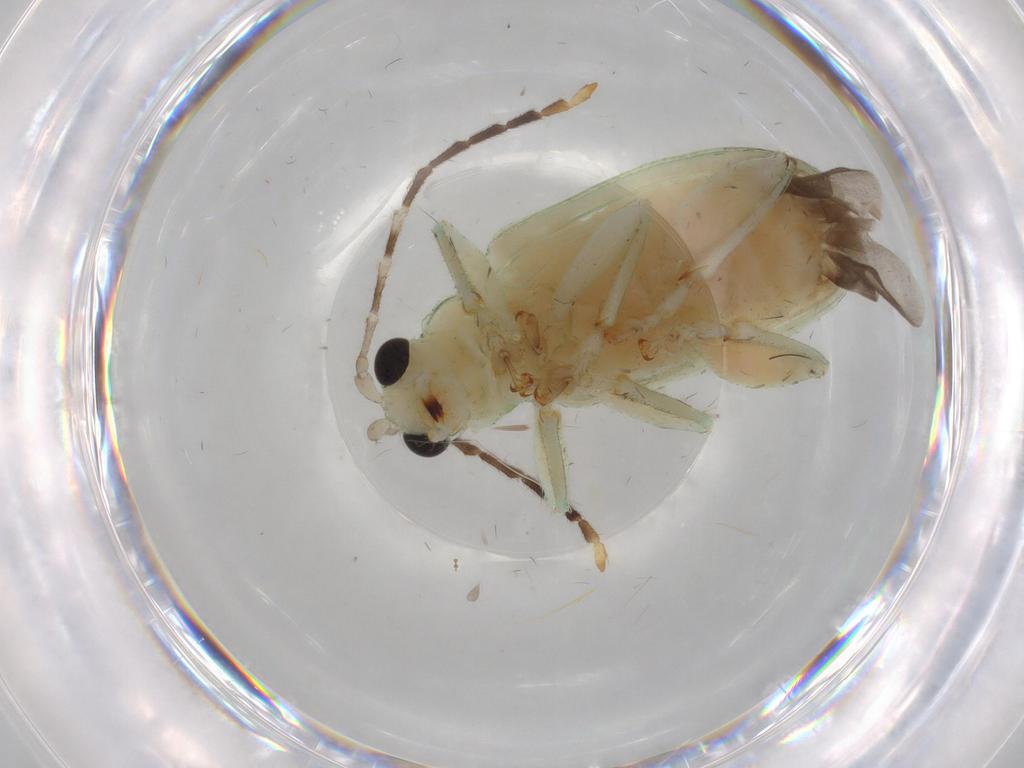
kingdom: Animalia
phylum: Arthropoda
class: Insecta
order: Coleoptera
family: Chrysomelidae
